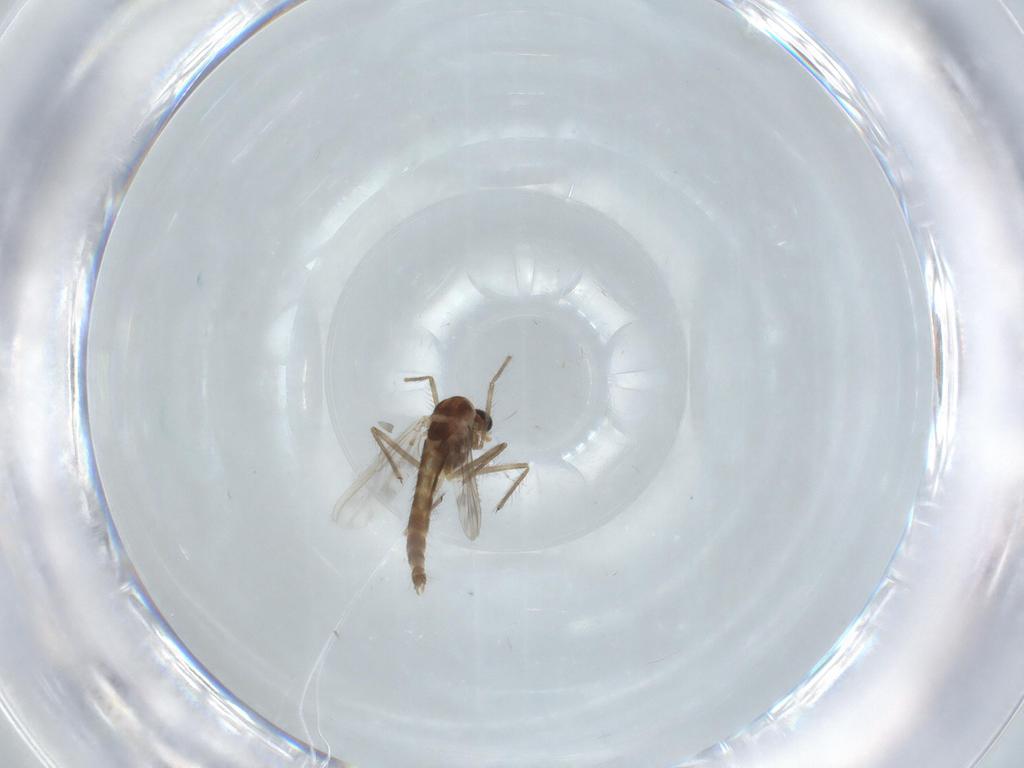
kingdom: Animalia
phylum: Arthropoda
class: Insecta
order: Diptera
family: Chironomidae
